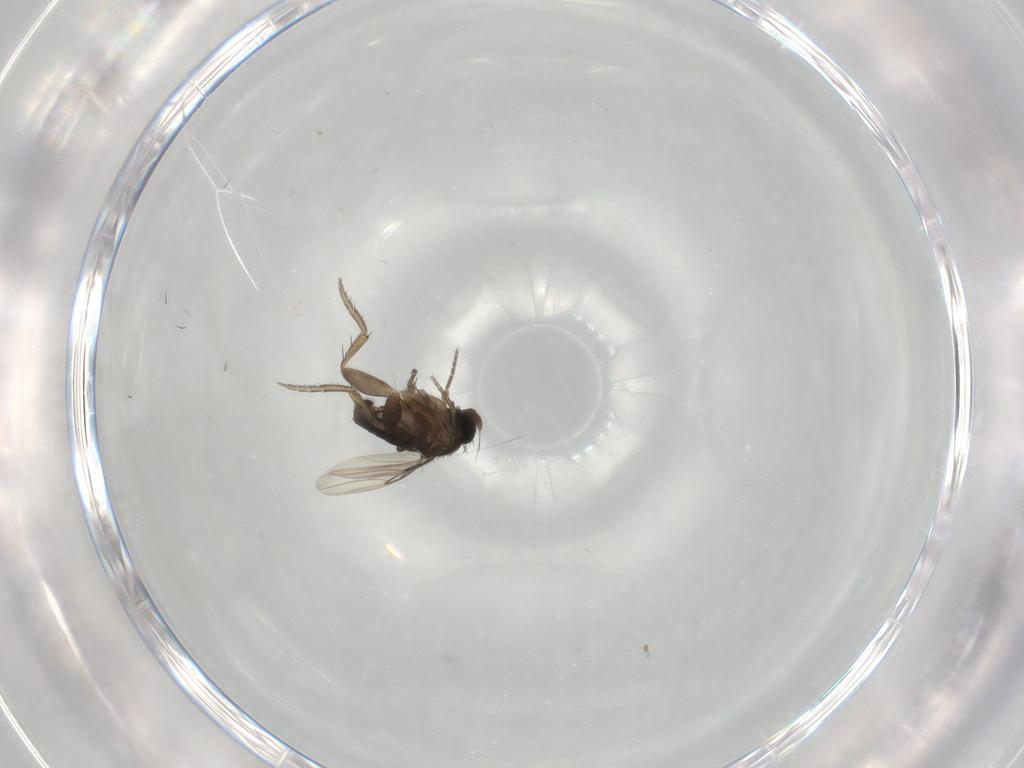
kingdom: Animalia
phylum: Arthropoda
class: Insecta
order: Diptera
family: Phoridae
